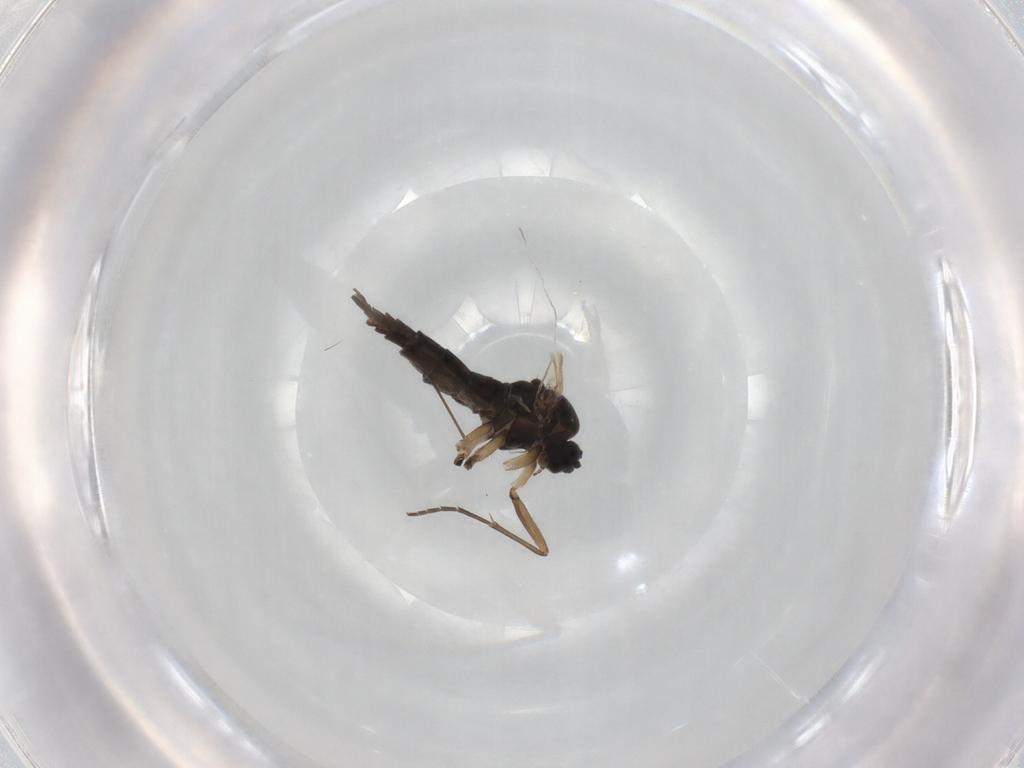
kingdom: Animalia
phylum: Arthropoda
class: Insecta
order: Diptera
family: Sciaridae
